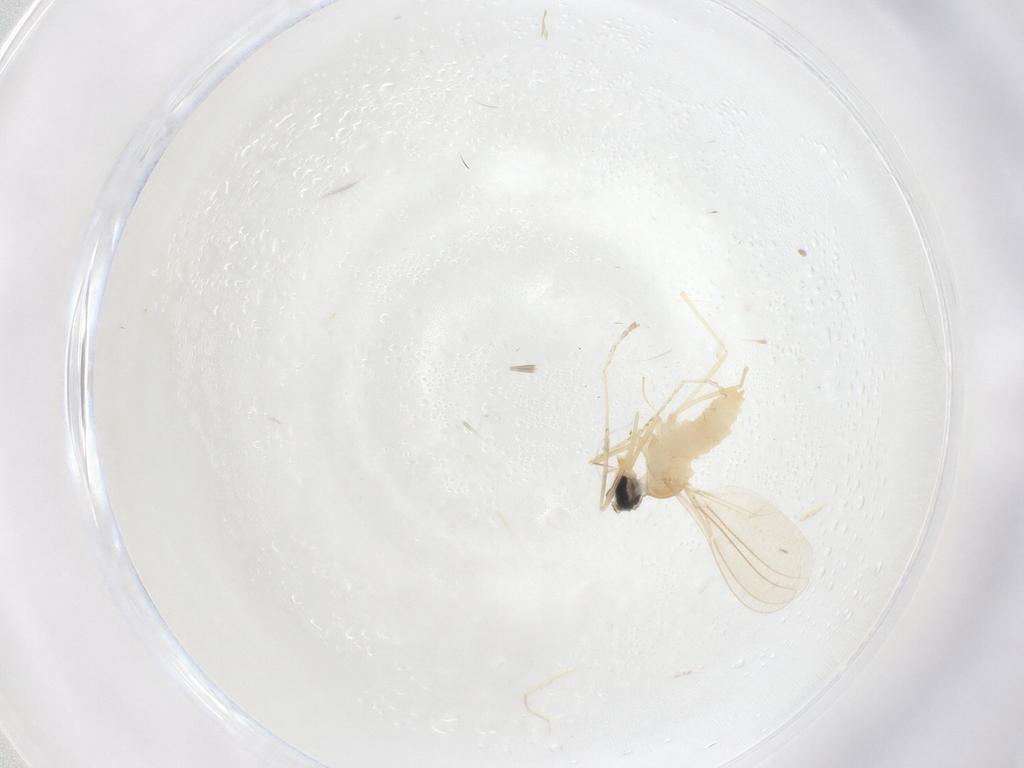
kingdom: Animalia
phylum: Arthropoda
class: Insecta
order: Diptera
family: Cecidomyiidae
